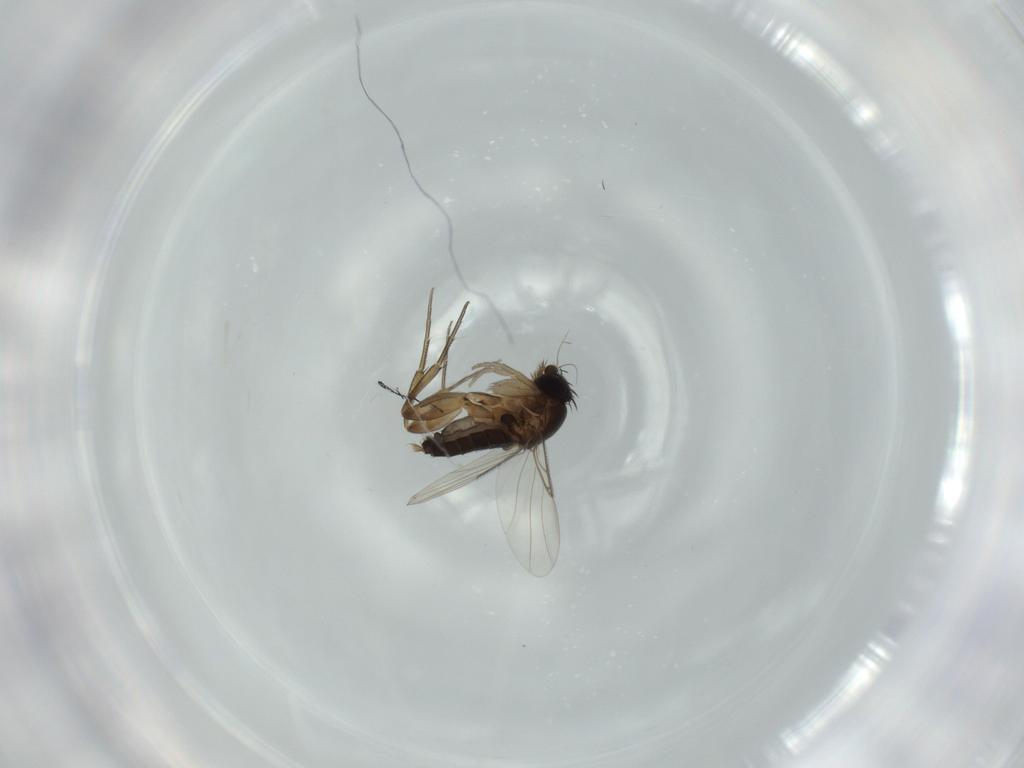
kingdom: Animalia
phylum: Arthropoda
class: Insecta
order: Diptera
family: Cecidomyiidae
